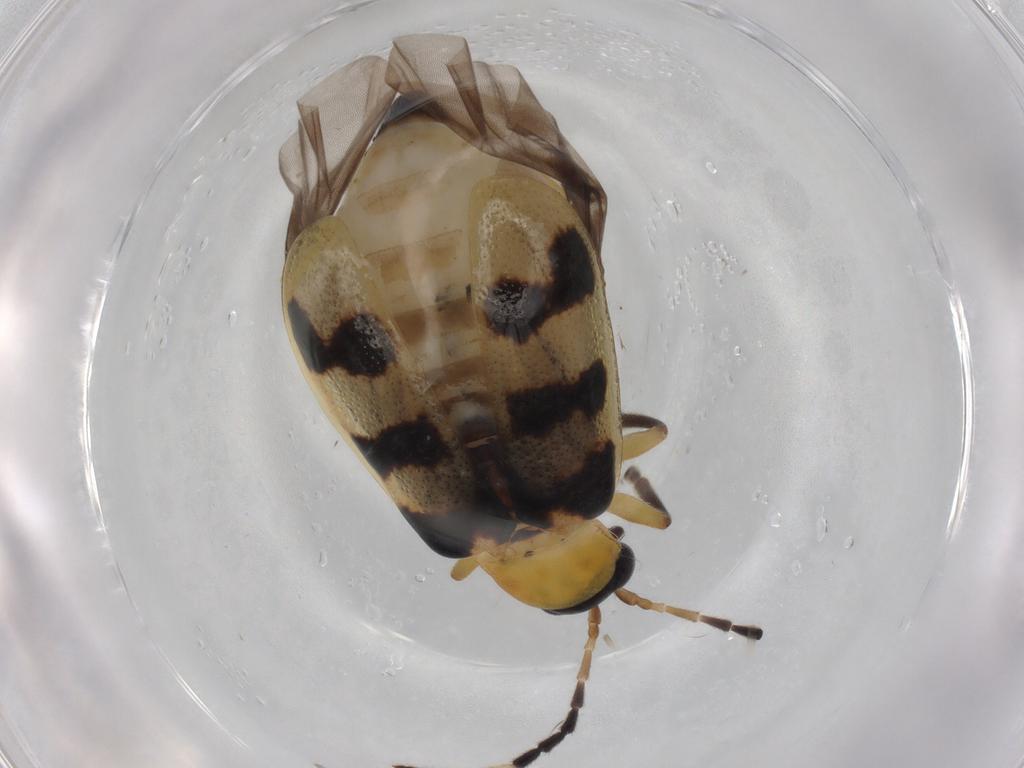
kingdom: Animalia
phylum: Arthropoda
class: Insecta
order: Coleoptera
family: Chrysomelidae
